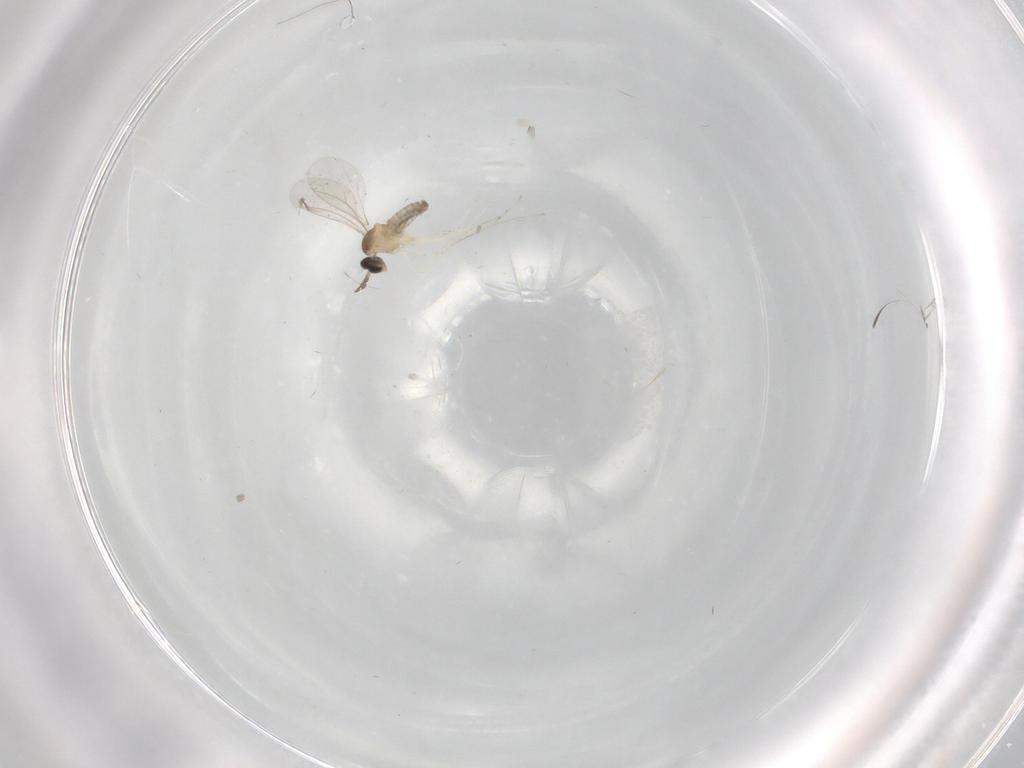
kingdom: Animalia
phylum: Arthropoda
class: Insecta
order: Diptera
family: Cecidomyiidae
